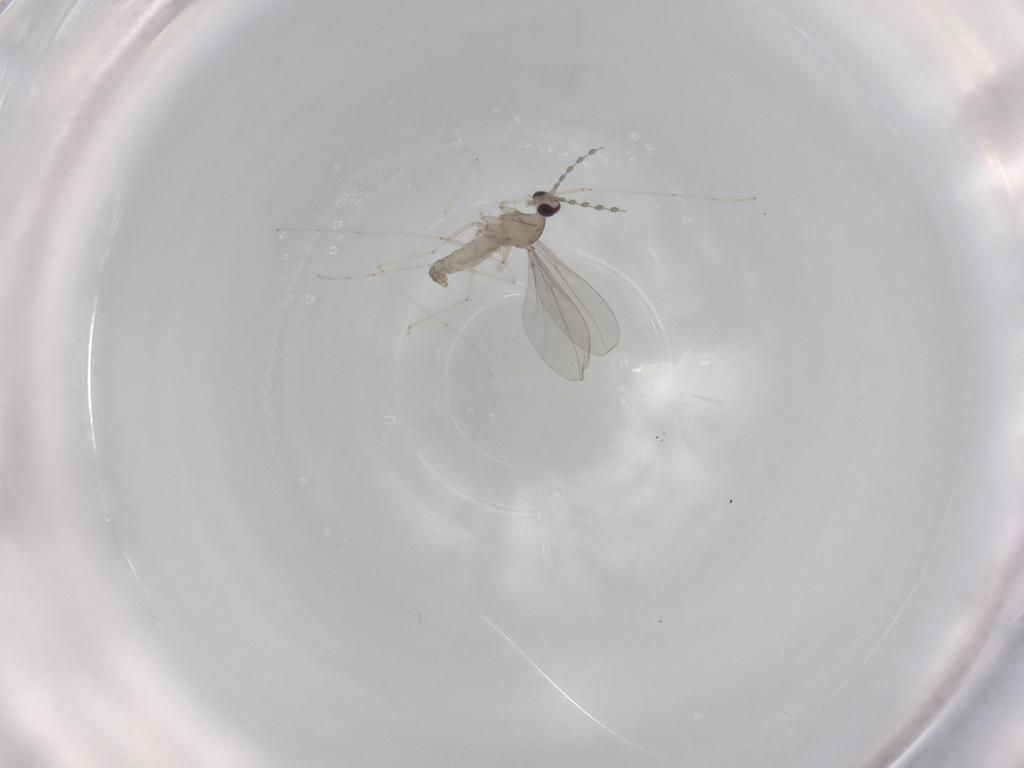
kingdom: Animalia
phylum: Arthropoda
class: Insecta
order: Diptera
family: Cecidomyiidae
